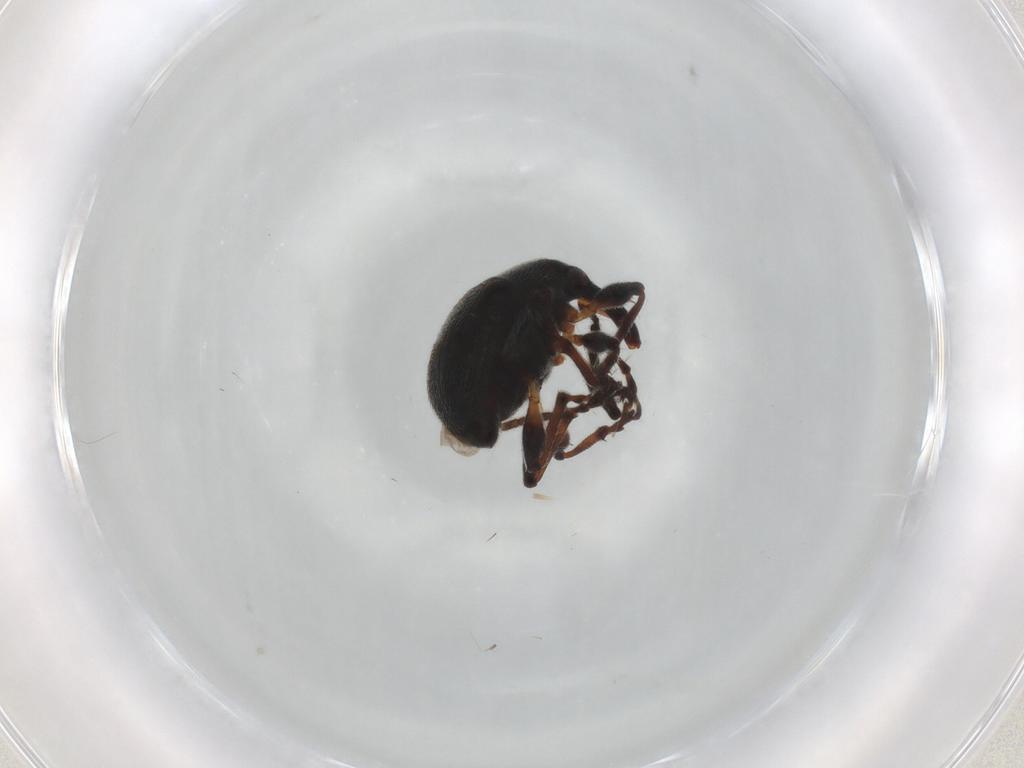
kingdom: Animalia
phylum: Arthropoda
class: Insecta
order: Coleoptera
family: Brentidae
